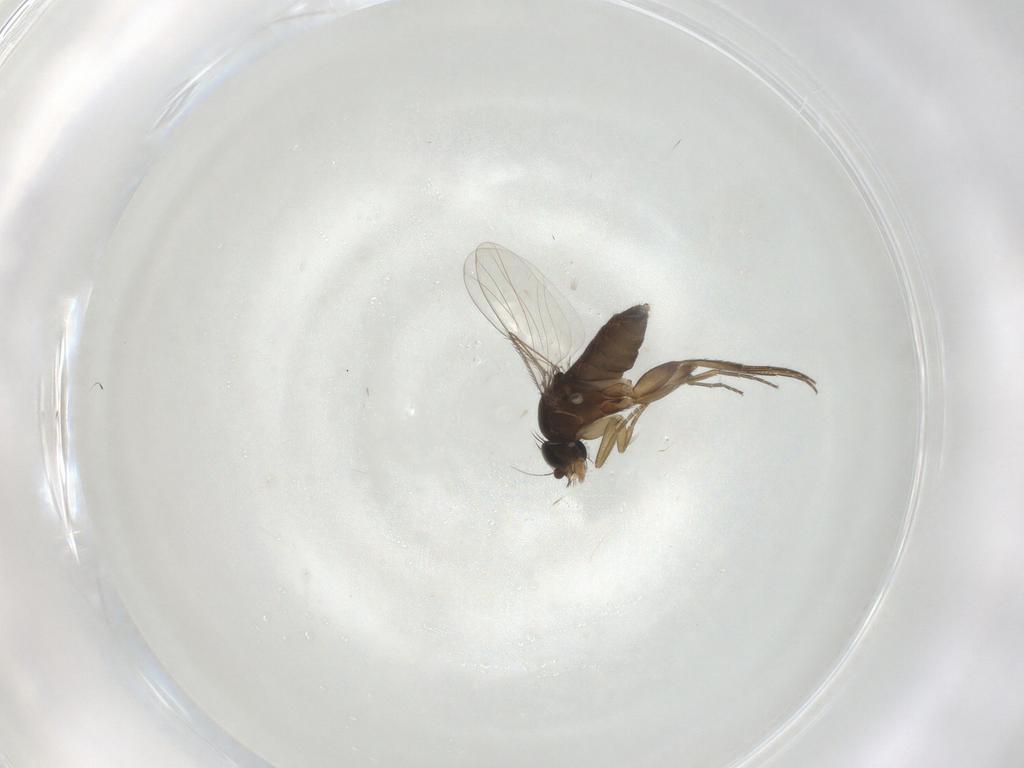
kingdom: Animalia
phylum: Arthropoda
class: Insecta
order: Diptera
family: Phoridae
